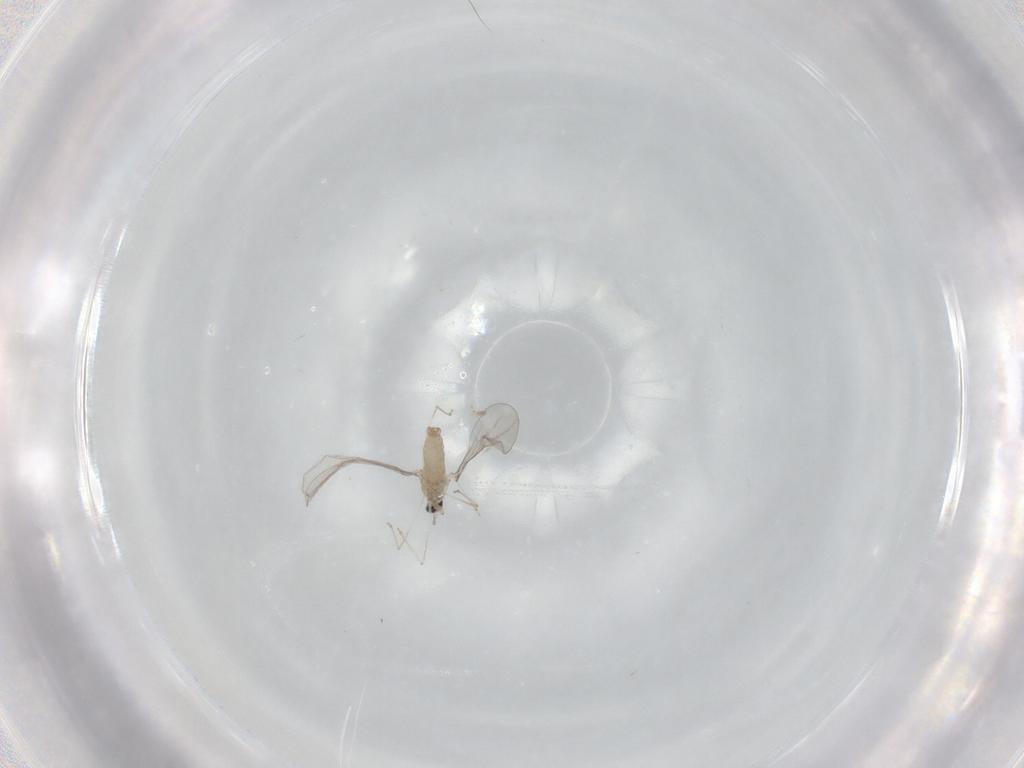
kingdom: Animalia
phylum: Arthropoda
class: Insecta
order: Diptera
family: Cecidomyiidae
